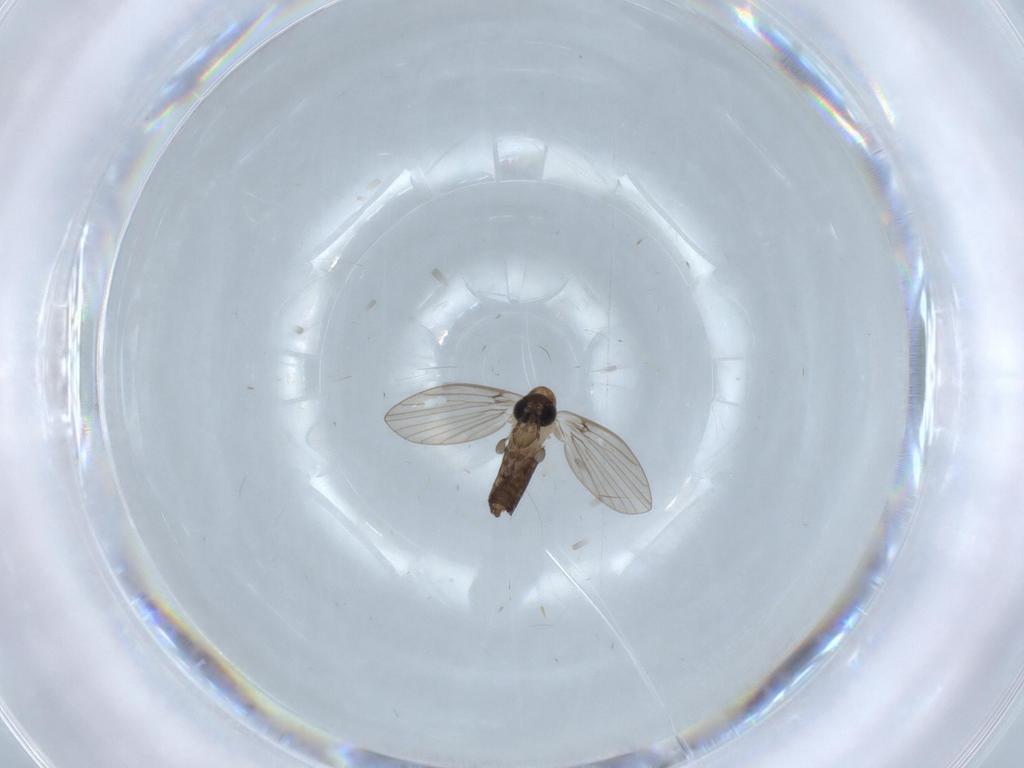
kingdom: Animalia
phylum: Arthropoda
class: Insecta
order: Diptera
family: Psychodidae
